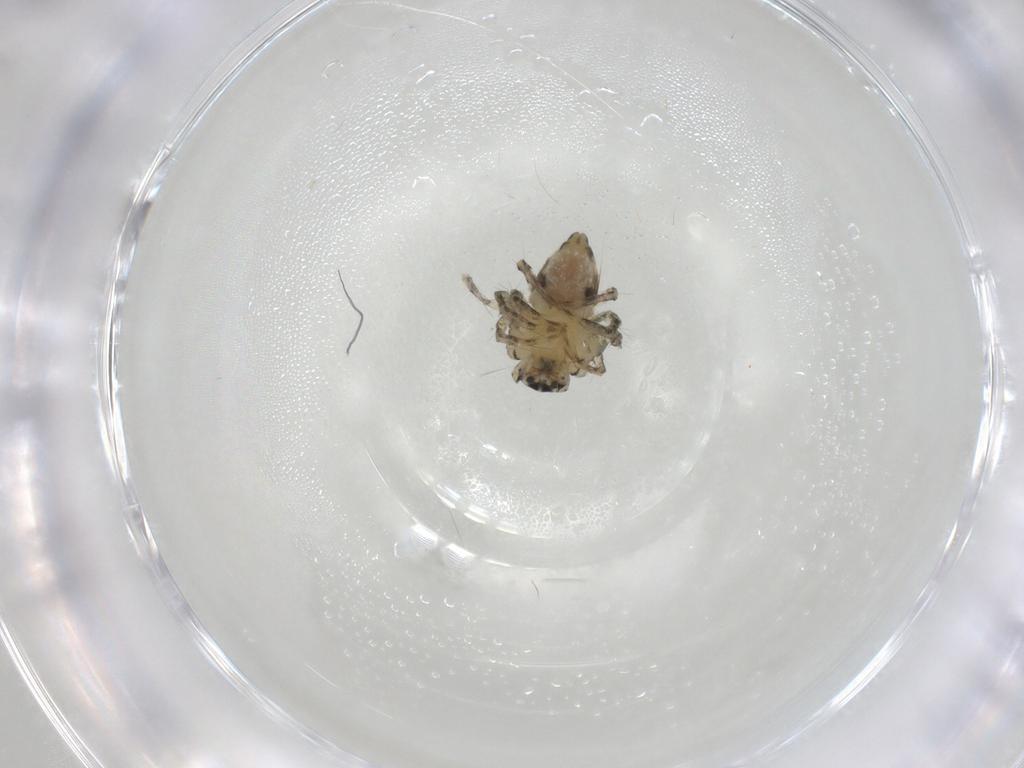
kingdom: Animalia
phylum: Arthropoda
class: Arachnida
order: Araneae
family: Oxyopidae
